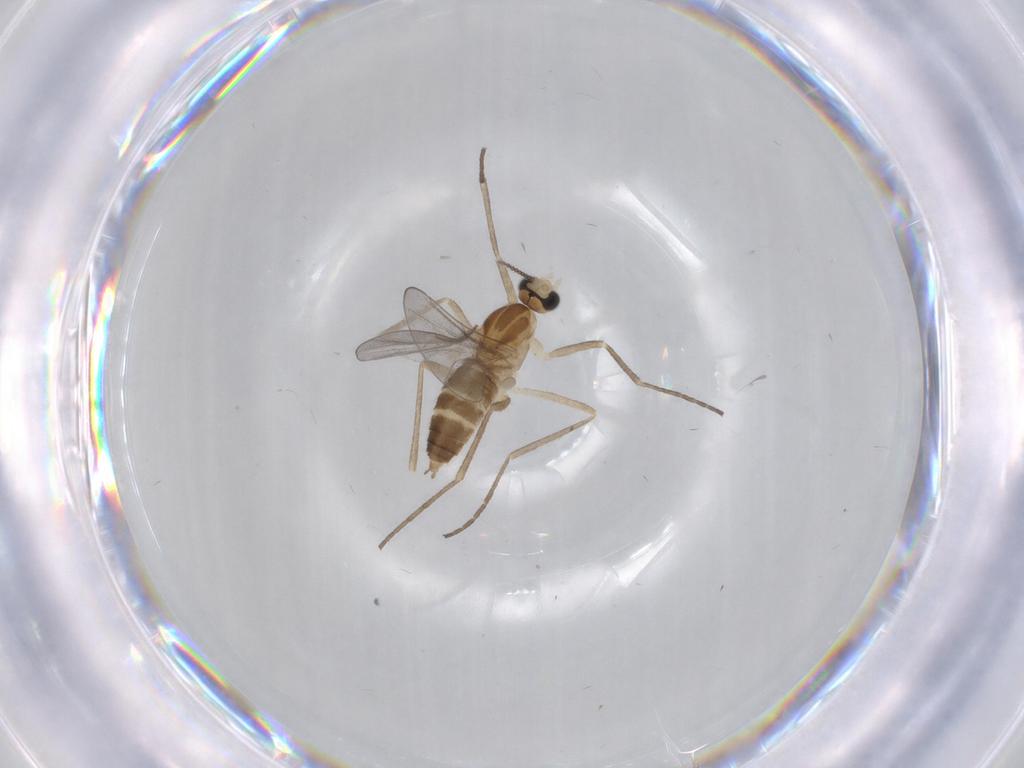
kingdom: Animalia
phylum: Arthropoda
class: Insecta
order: Diptera
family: Cecidomyiidae
